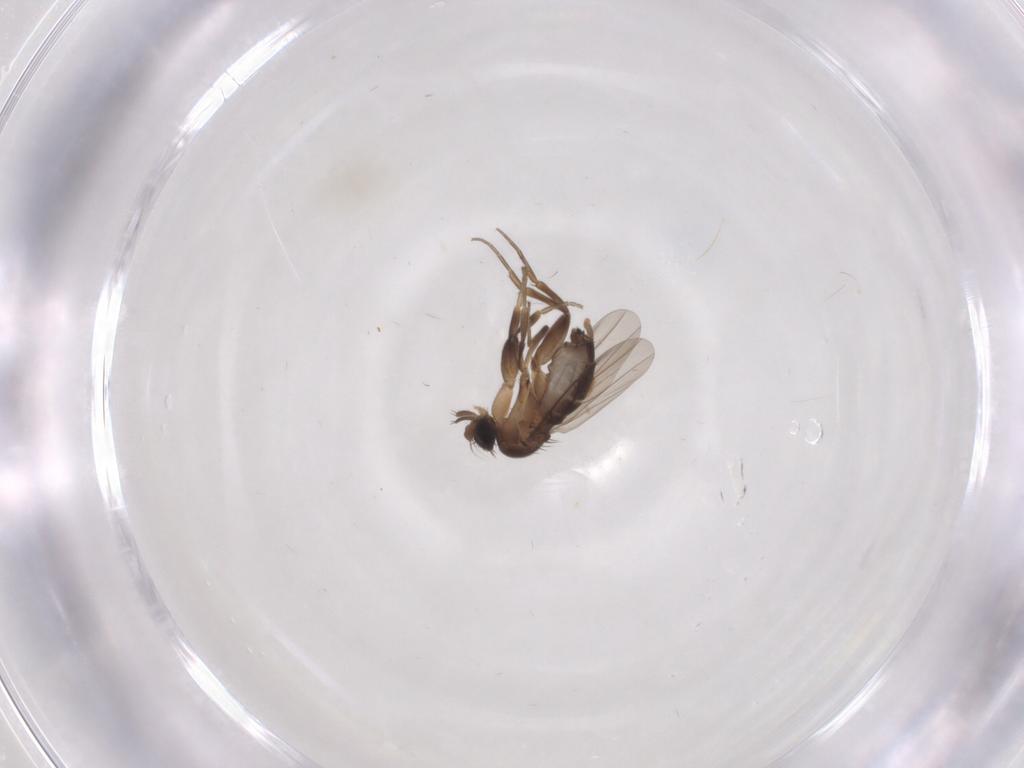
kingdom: Animalia
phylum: Arthropoda
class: Insecta
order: Diptera
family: Phoridae
